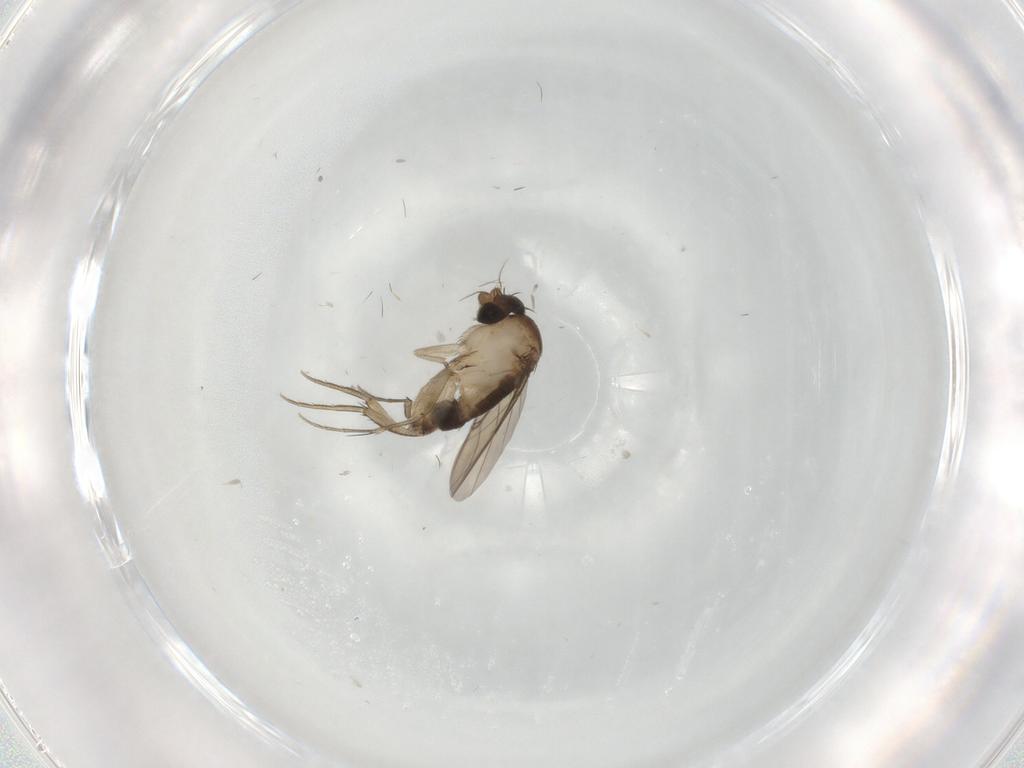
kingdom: Animalia
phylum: Arthropoda
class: Insecta
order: Diptera
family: Phoridae
